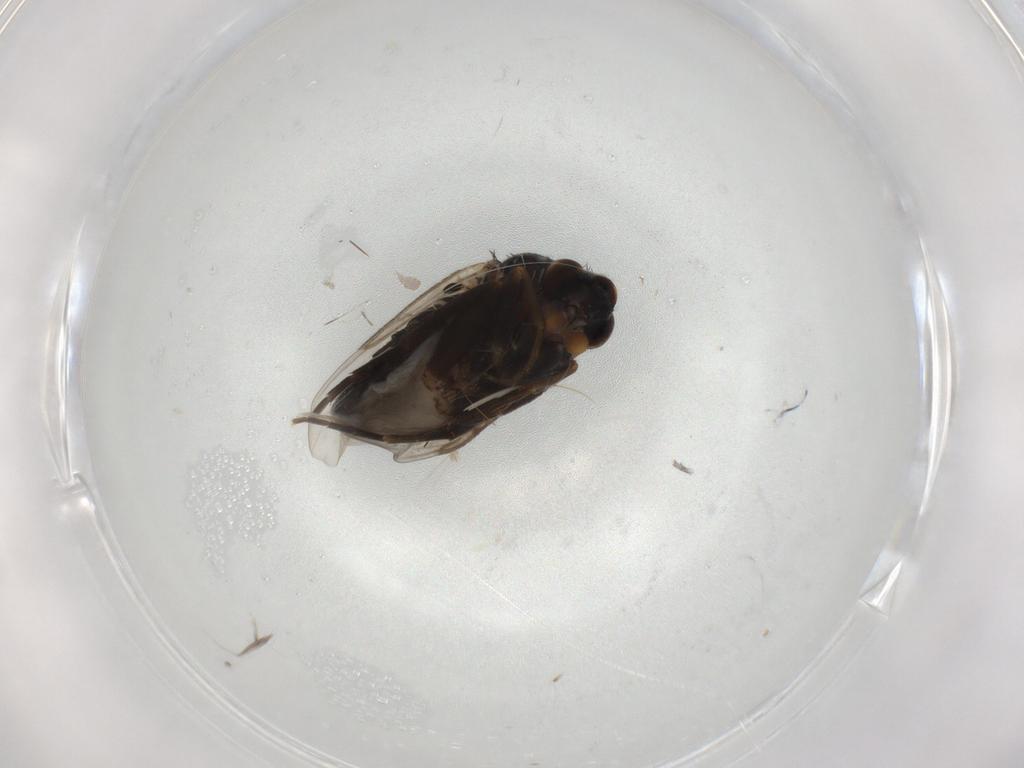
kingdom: Animalia
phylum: Arthropoda
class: Insecta
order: Diptera
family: Phoridae
